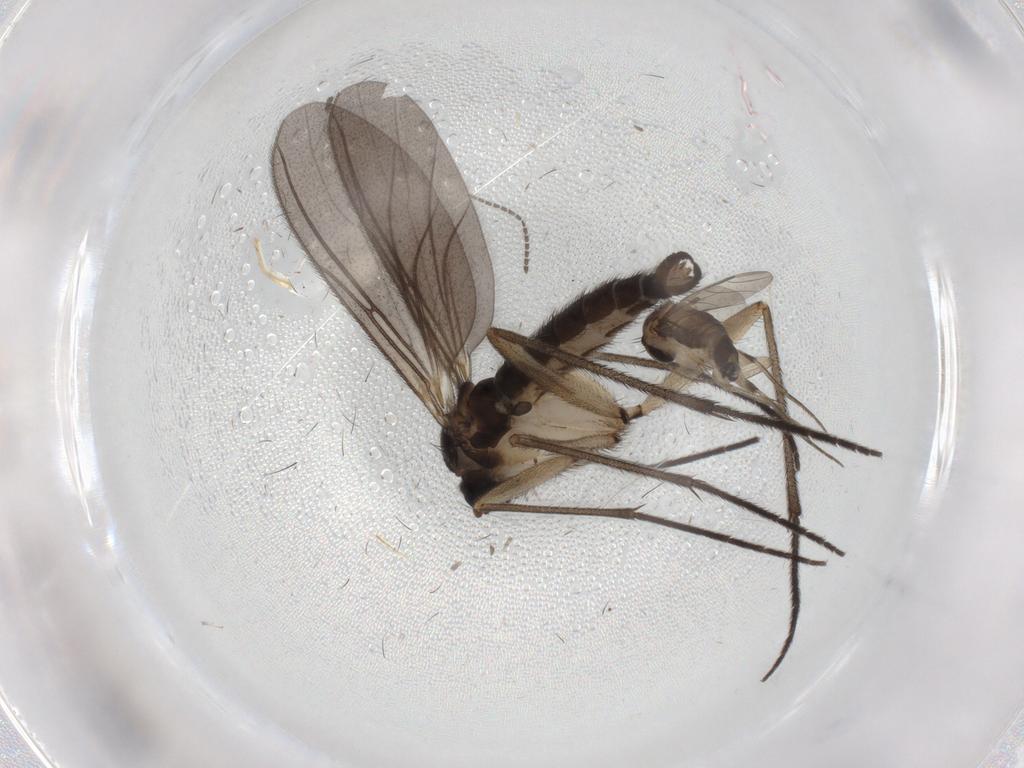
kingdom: Animalia
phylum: Arthropoda
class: Insecta
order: Diptera
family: Sciaridae
